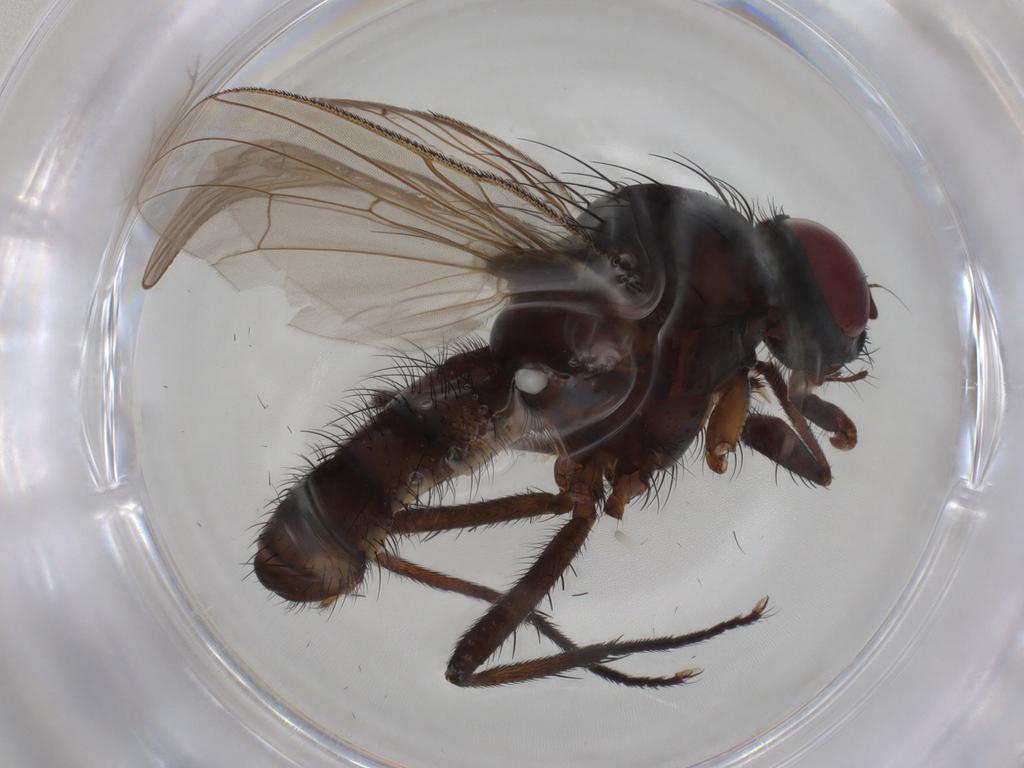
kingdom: Animalia
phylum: Arthropoda
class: Insecta
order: Diptera
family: Anthomyiidae
